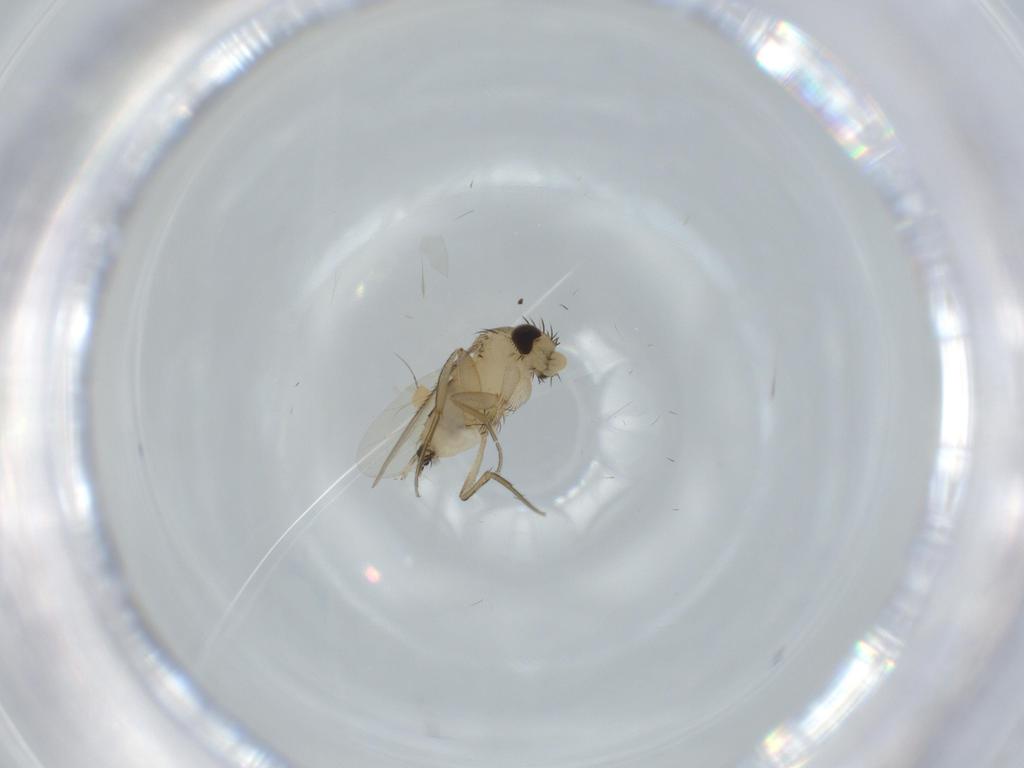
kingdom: Animalia
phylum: Arthropoda
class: Insecta
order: Diptera
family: Phoridae
